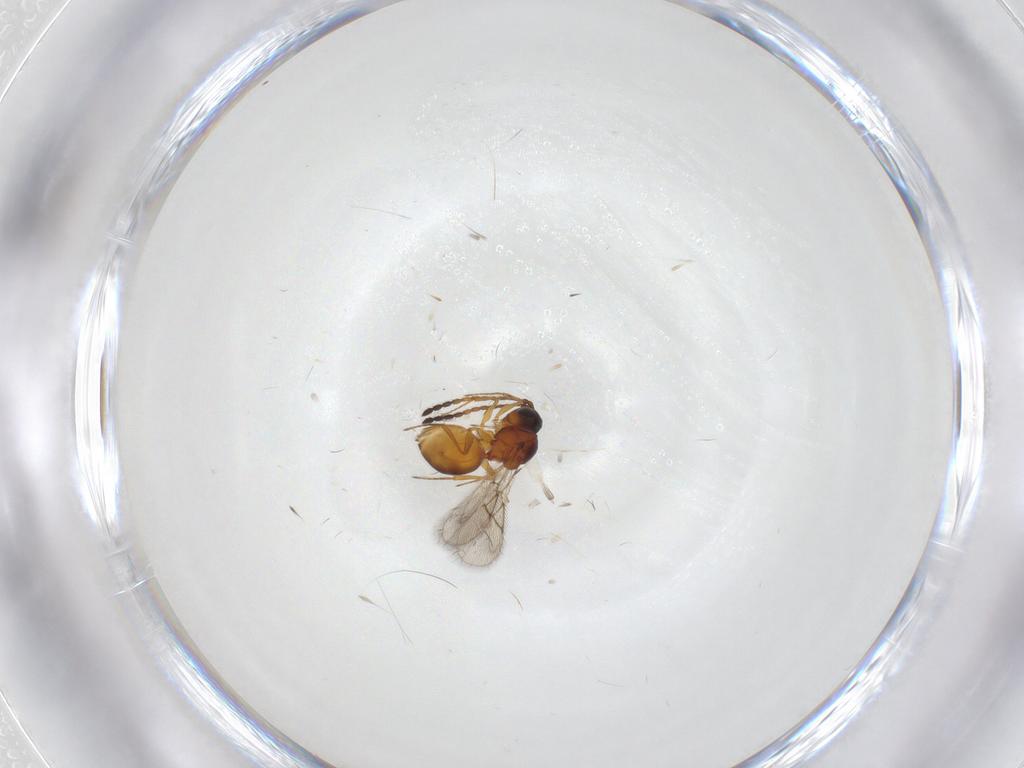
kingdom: Animalia
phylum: Arthropoda
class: Insecta
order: Hymenoptera
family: Figitidae
